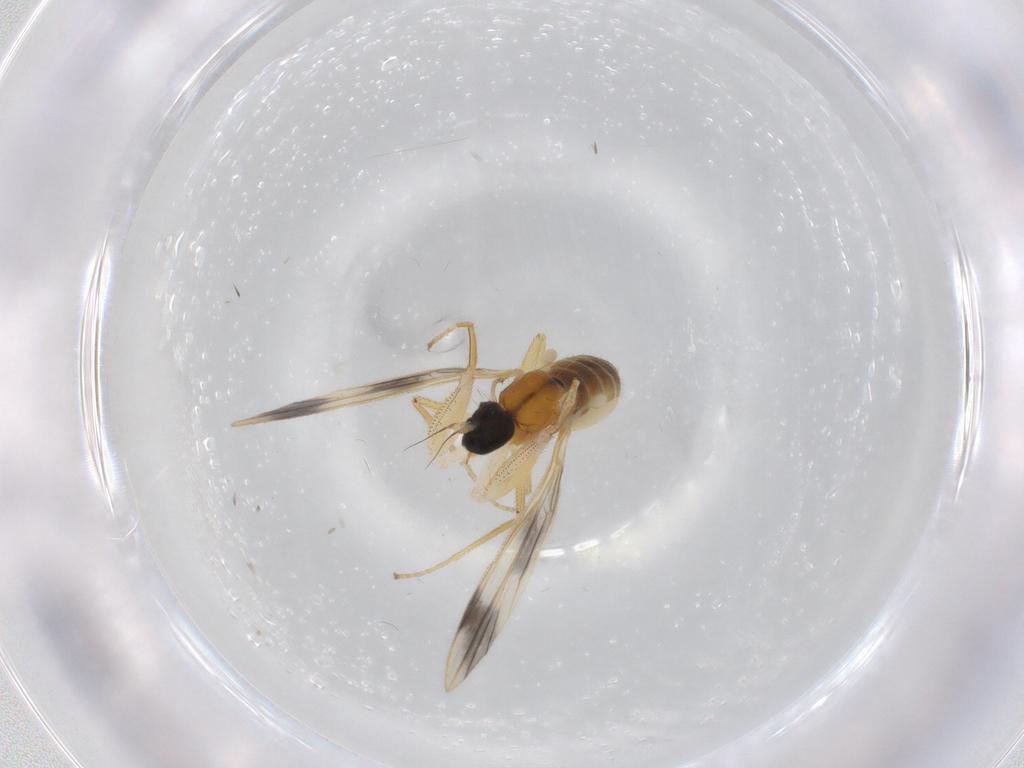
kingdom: Animalia
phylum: Arthropoda
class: Insecta
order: Diptera
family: Empididae
